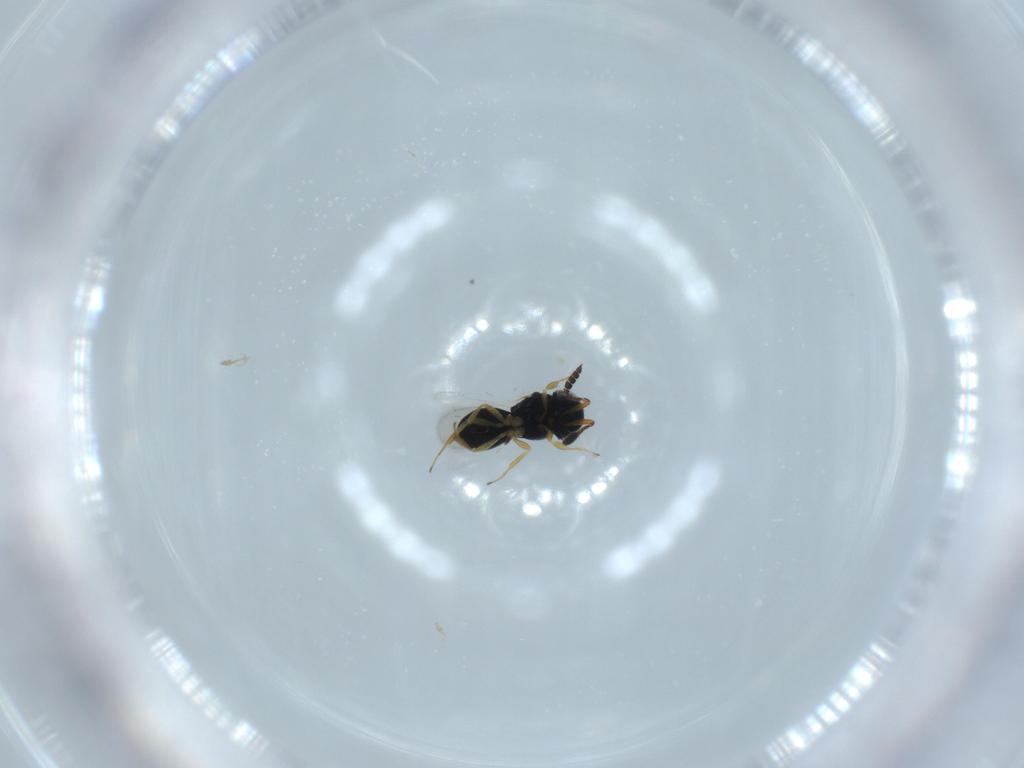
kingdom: Animalia
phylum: Arthropoda
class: Insecta
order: Hymenoptera
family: Scelionidae
